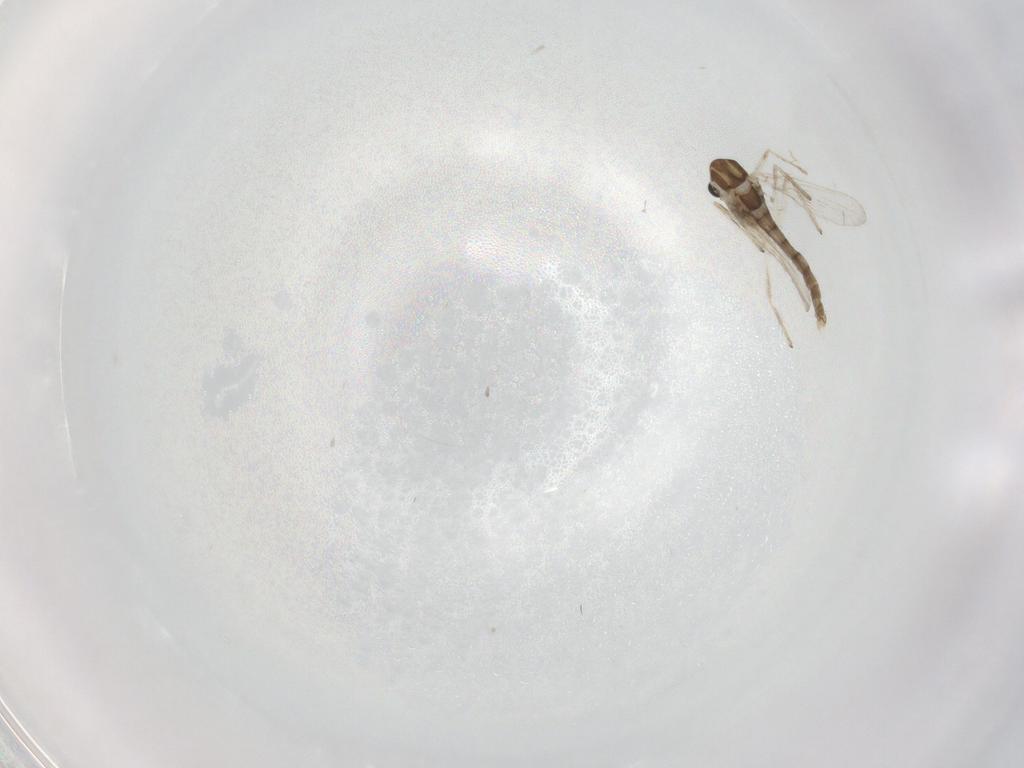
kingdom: Animalia
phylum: Arthropoda
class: Insecta
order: Diptera
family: Chironomidae
